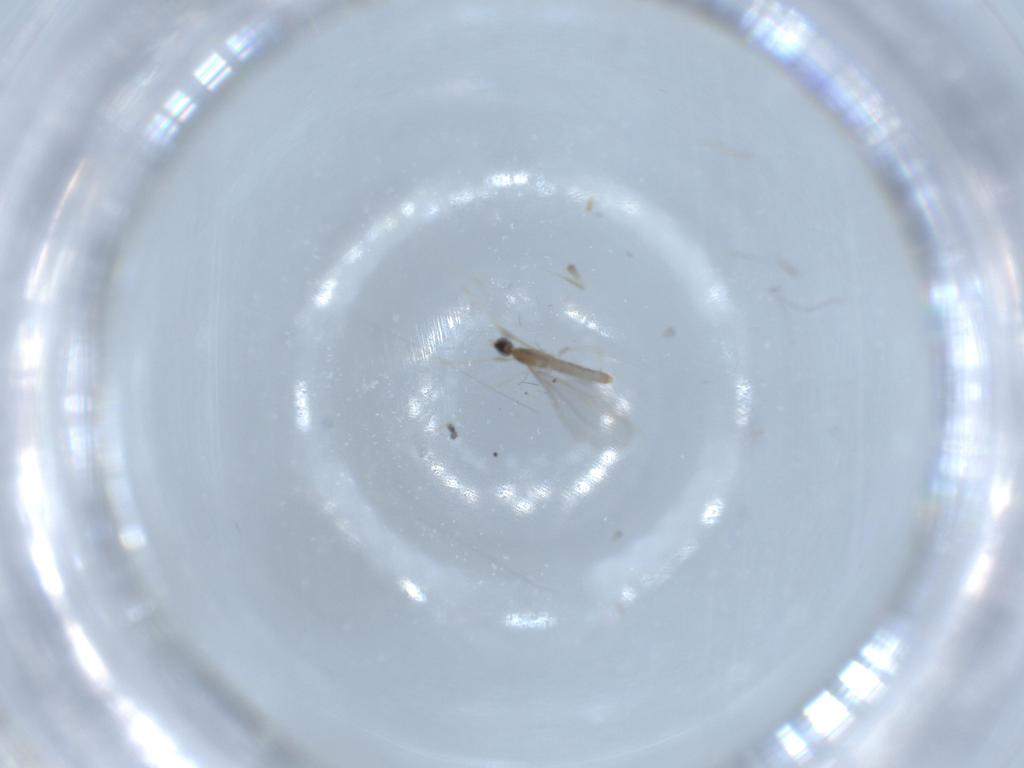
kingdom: Animalia
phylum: Arthropoda
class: Insecta
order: Diptera
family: Cecidomyiidae
